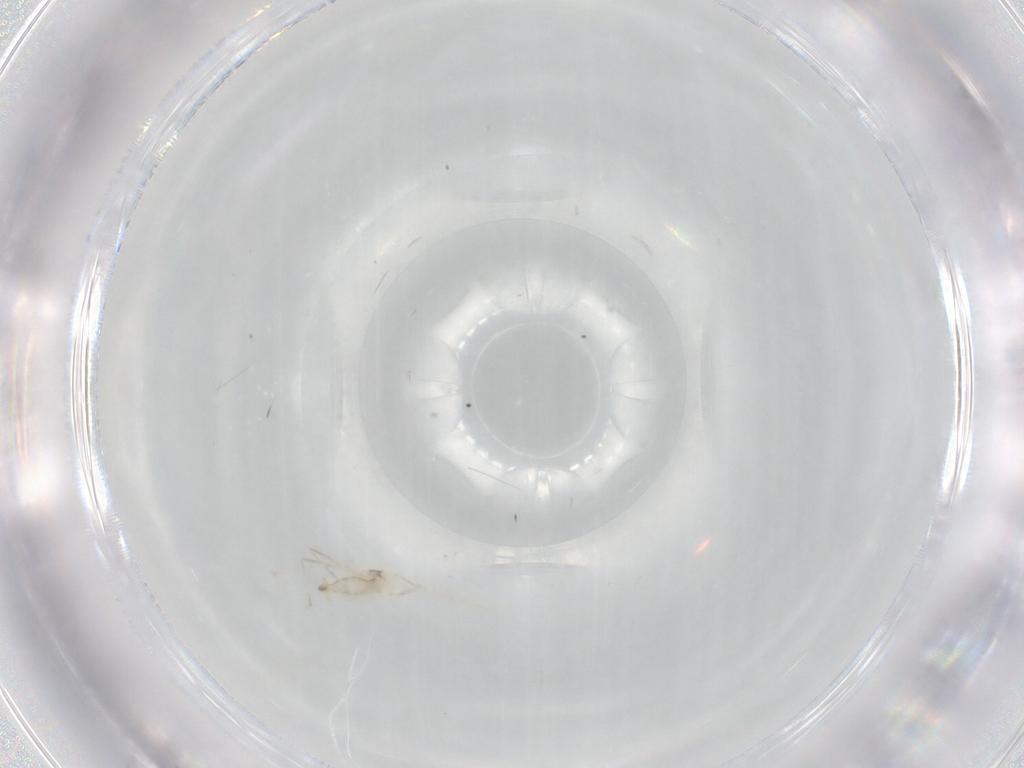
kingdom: Animalia
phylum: Arthropoda
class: Insecta
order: Diptera
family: Cecidomyiidae
